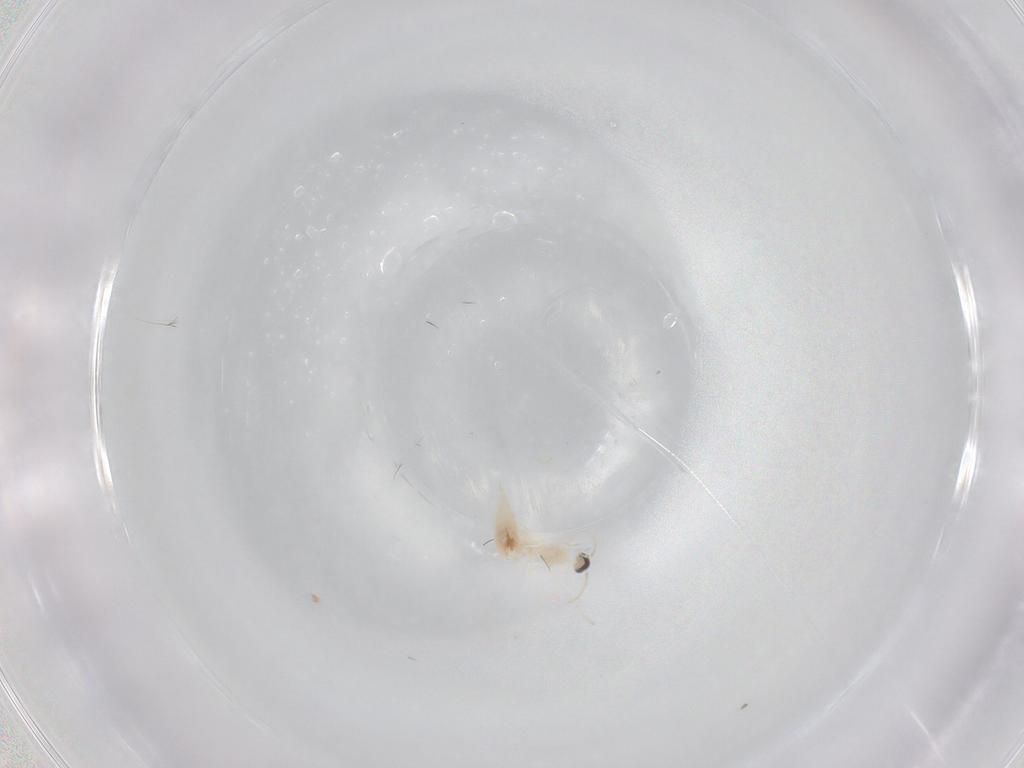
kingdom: Animalia
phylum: Arthropoda
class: Insecta
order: Diptera
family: Cecidomyiidae
